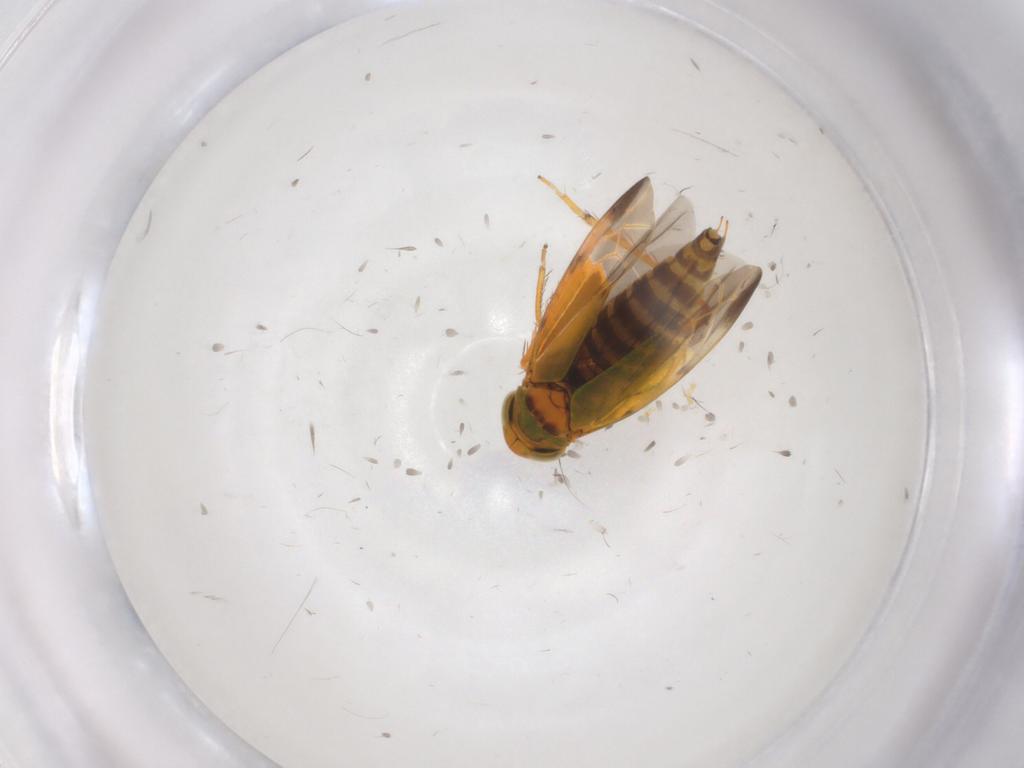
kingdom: Animalia
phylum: Arthropoda
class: Insecta
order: Hemiptera
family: Cicadellidae
